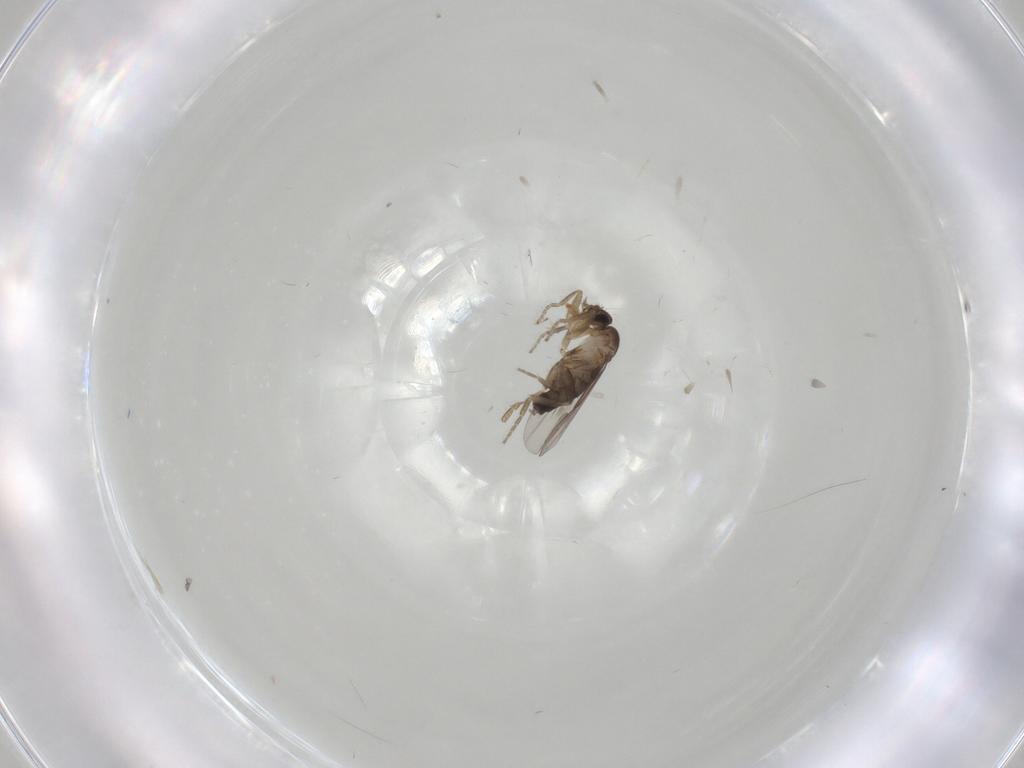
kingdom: Animalia
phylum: Arthropoda
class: Insecta
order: Diptera
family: Phoridae
